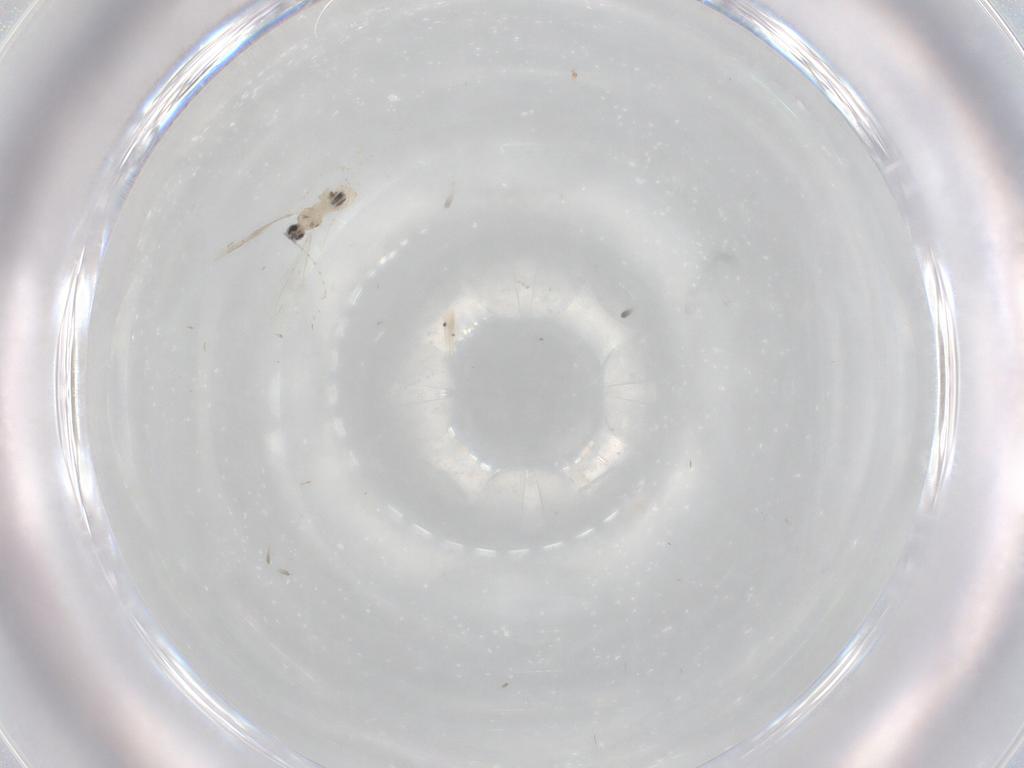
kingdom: Animalia
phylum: Arthropoda
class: Insecta
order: Diptera
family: Cecidomyiidae
